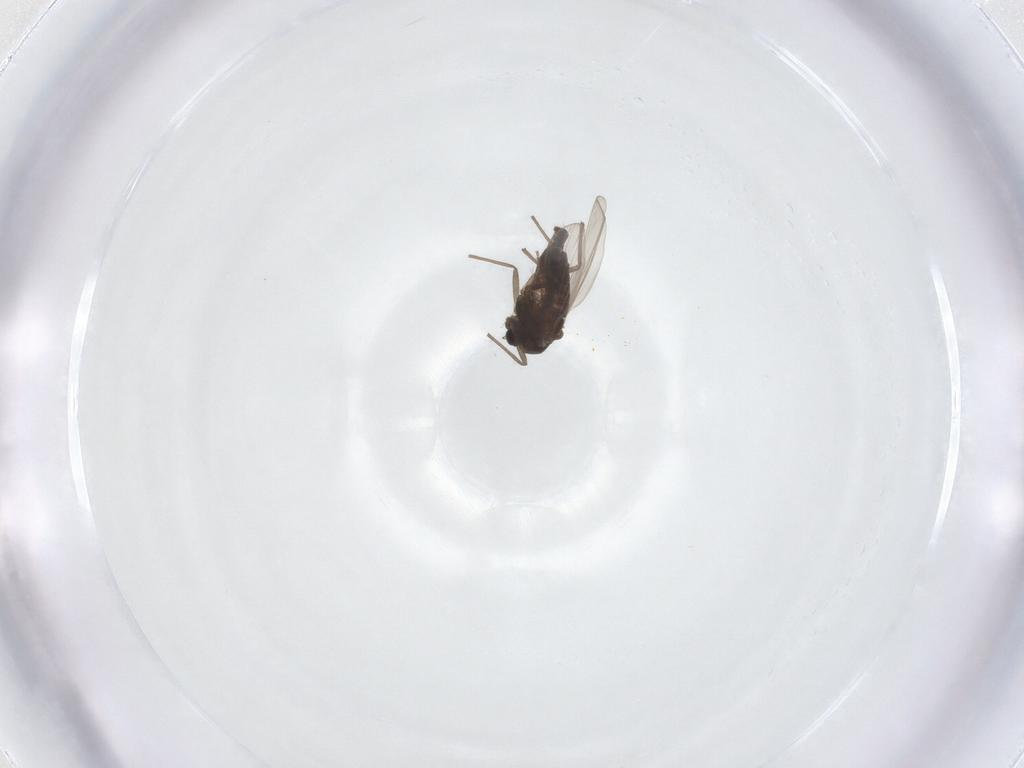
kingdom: Animalia
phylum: Arthropoda
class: Insecta
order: Diptera
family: Chironomidae
